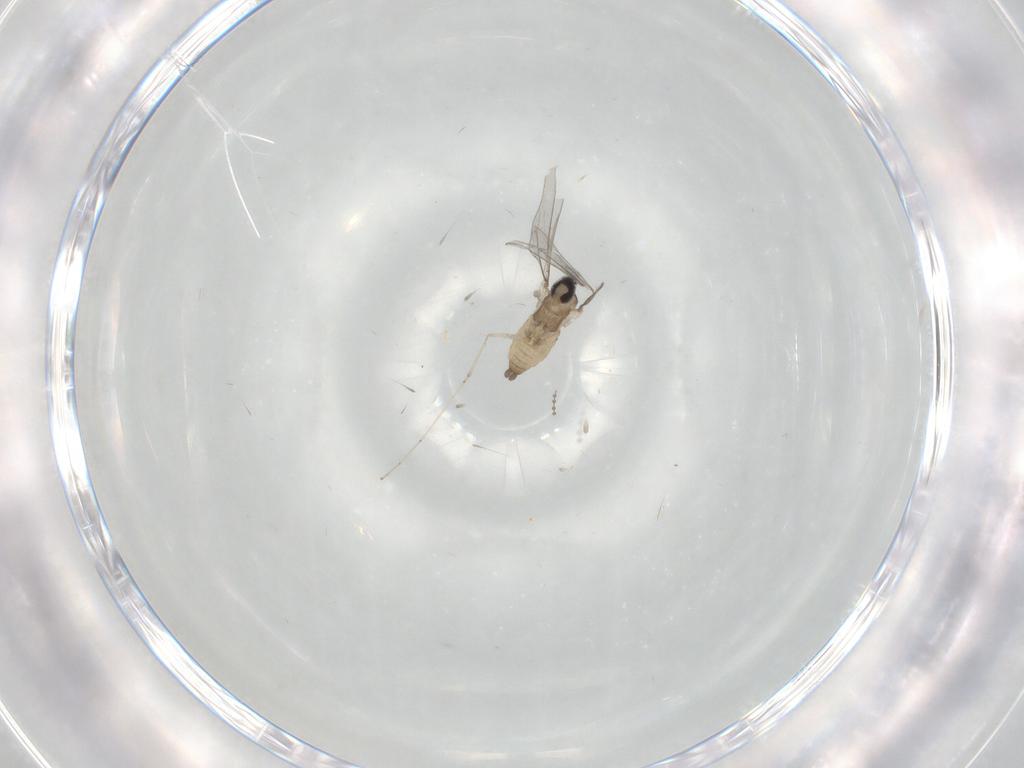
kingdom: Animalia
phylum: Arthropoda
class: Insecta
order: Diptera
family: Cecidomyiidae
